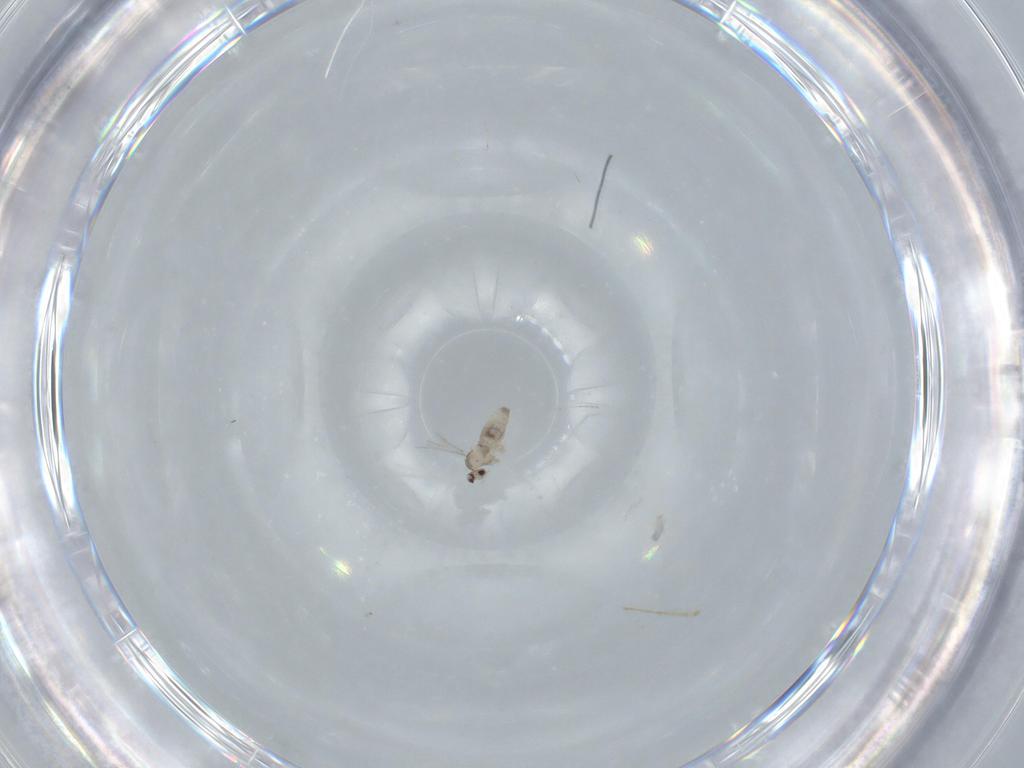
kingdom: Animalia
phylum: Arthropoda
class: Insecta
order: Diptera
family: Cecidomyiidae
